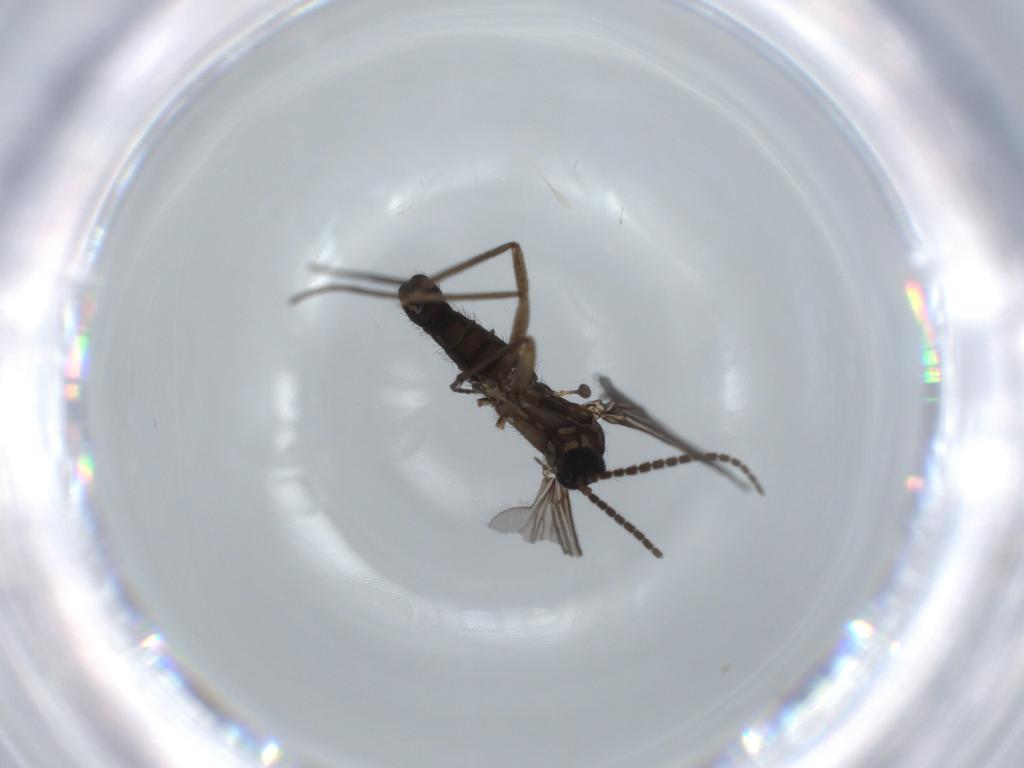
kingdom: Animalia
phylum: Arthropoda
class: Insecta
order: Diptera
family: Sciaridae
